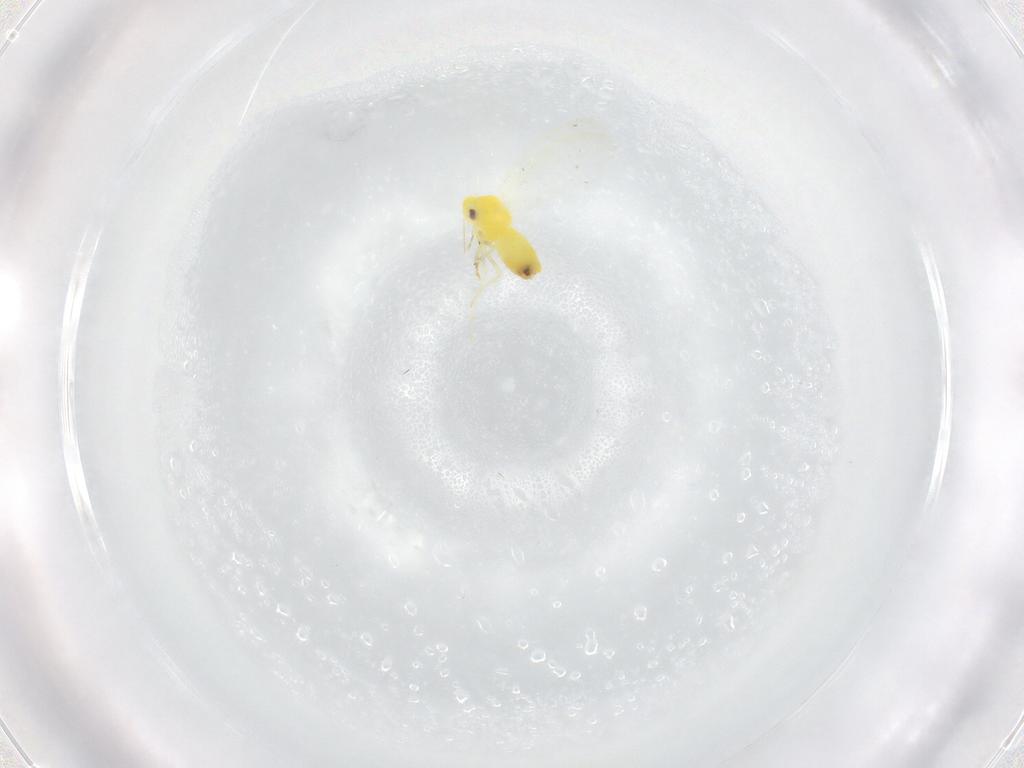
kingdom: Animalia
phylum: Arthropoda
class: Insecta
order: Hemiptera
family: Aleyrodidae
